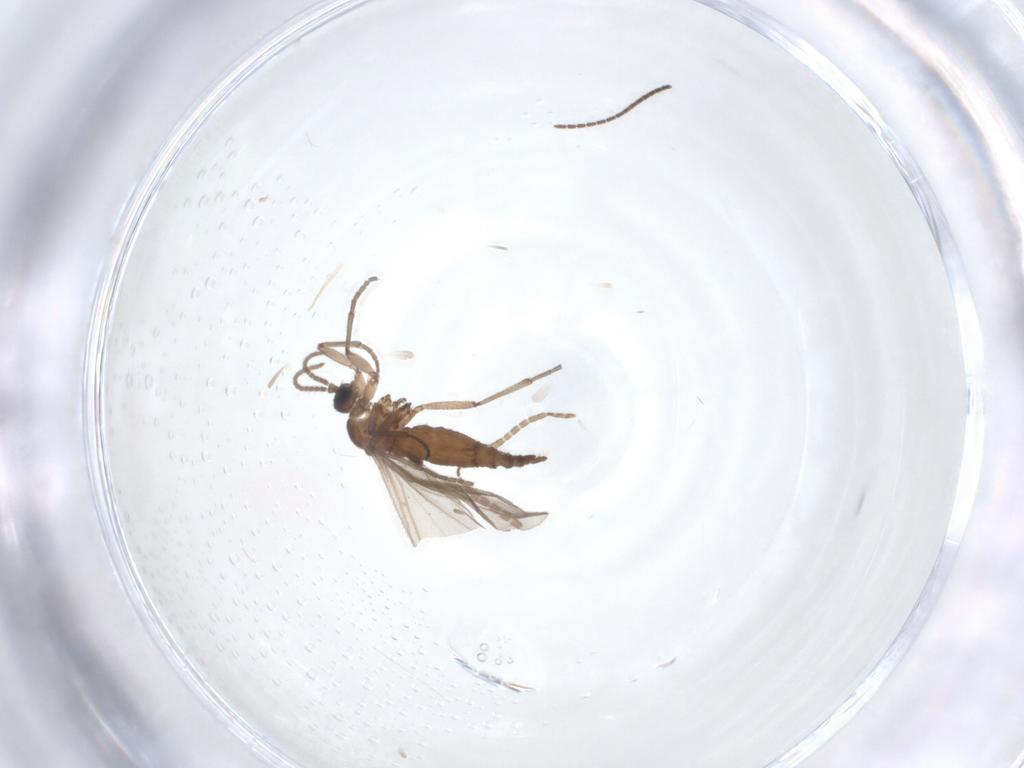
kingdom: Animalia
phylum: Arthropoda
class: Insecta
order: Diptera
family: Sciaridae
